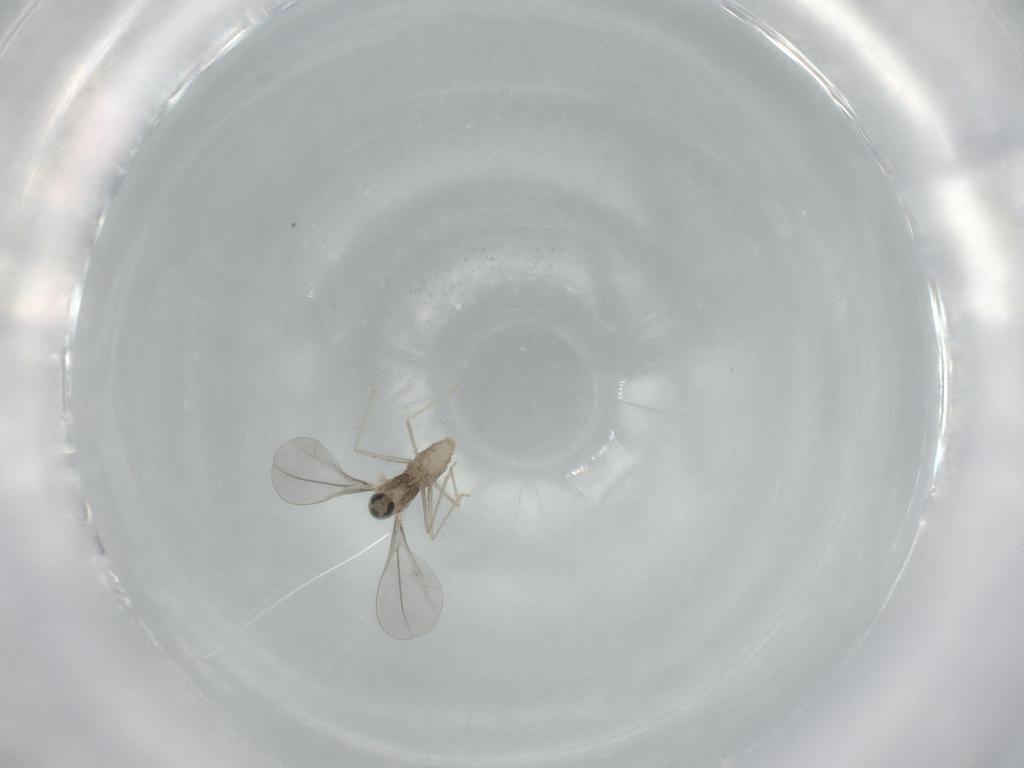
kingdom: Animalia
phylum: Arthropoda
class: Insecta
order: Diptera
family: Cecidomyiidae
